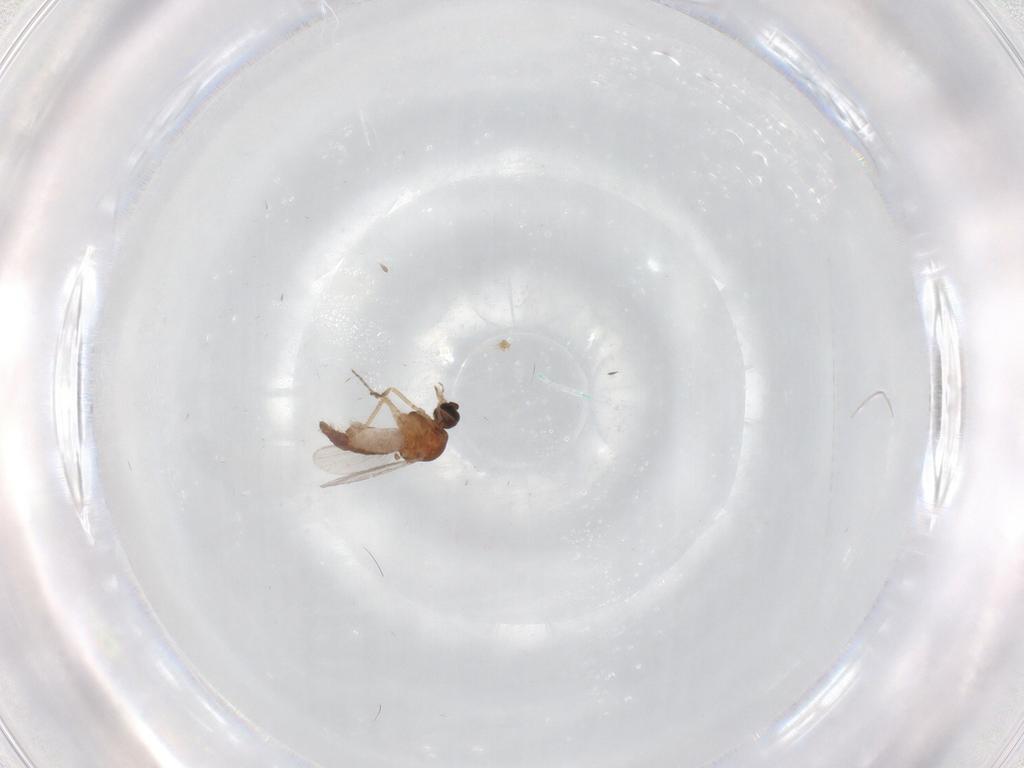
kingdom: Animalia
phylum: Arthropoda
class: Insecta
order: Diptera
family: Ceratopogonidae
